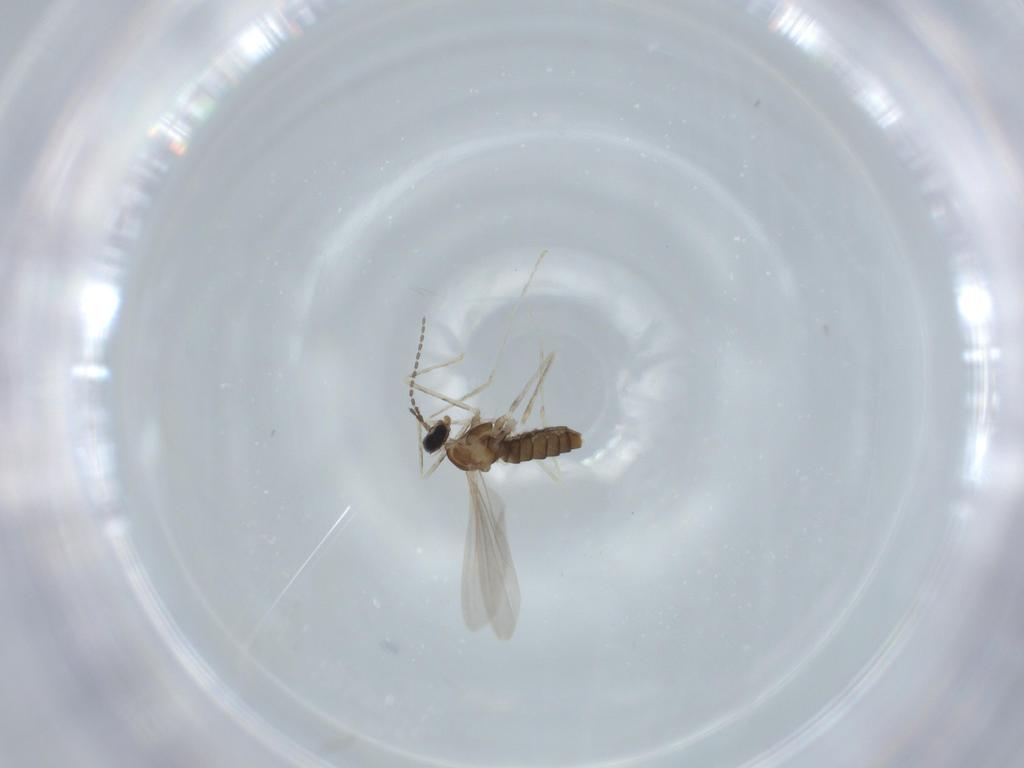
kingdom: Animalia
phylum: Arthropoda
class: Insecta
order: Diptera
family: Cecidomyiidae
